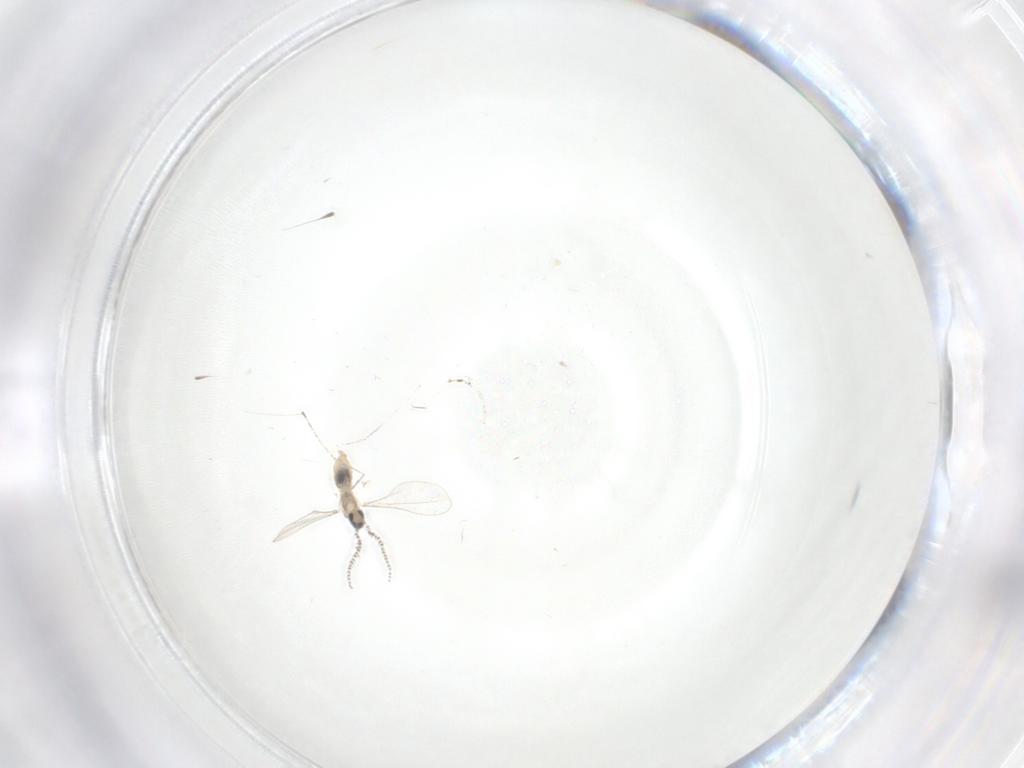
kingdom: Animalia
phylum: Arthropoda
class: Insecta
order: Diptera
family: Cecidomyiidae
